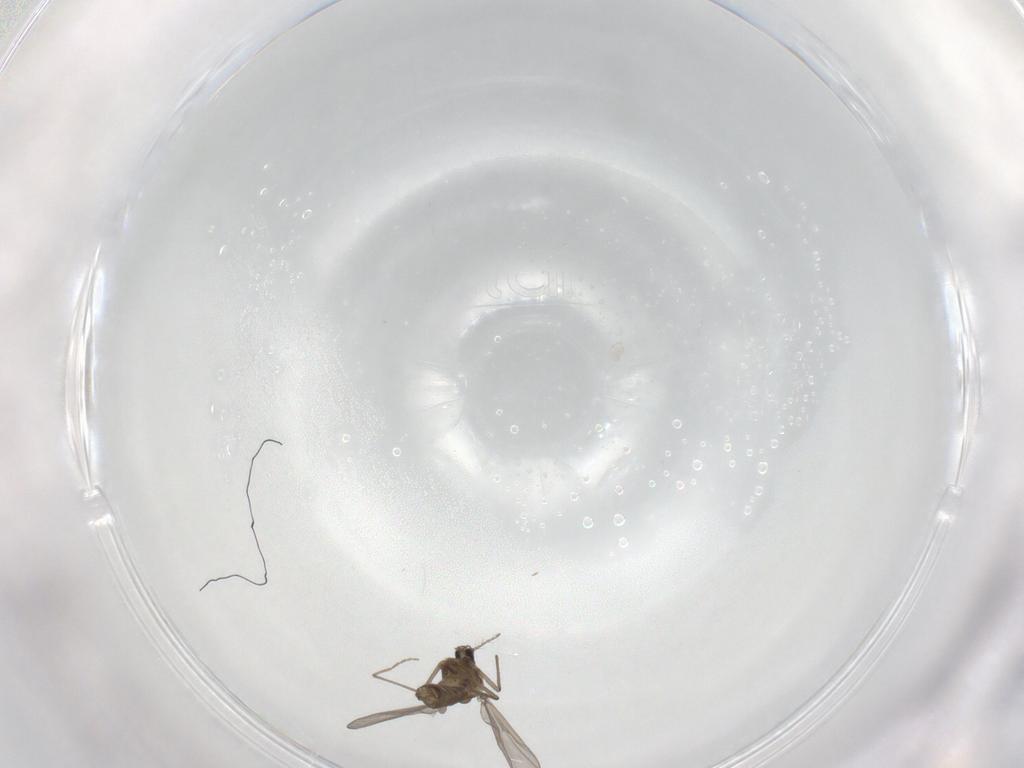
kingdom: Animalia
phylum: Arthropoda
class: Insecta
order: Diptera
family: Chironomidae
